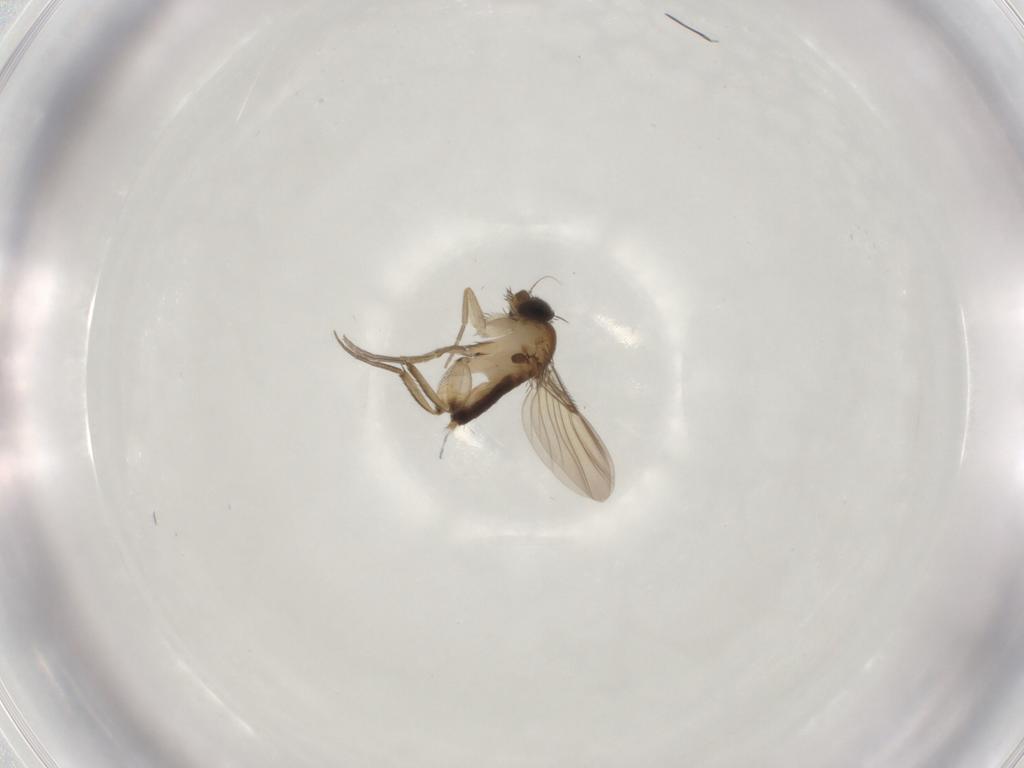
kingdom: Animalia
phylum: Arthropoda
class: Insecta
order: Diptera
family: Phoridae
